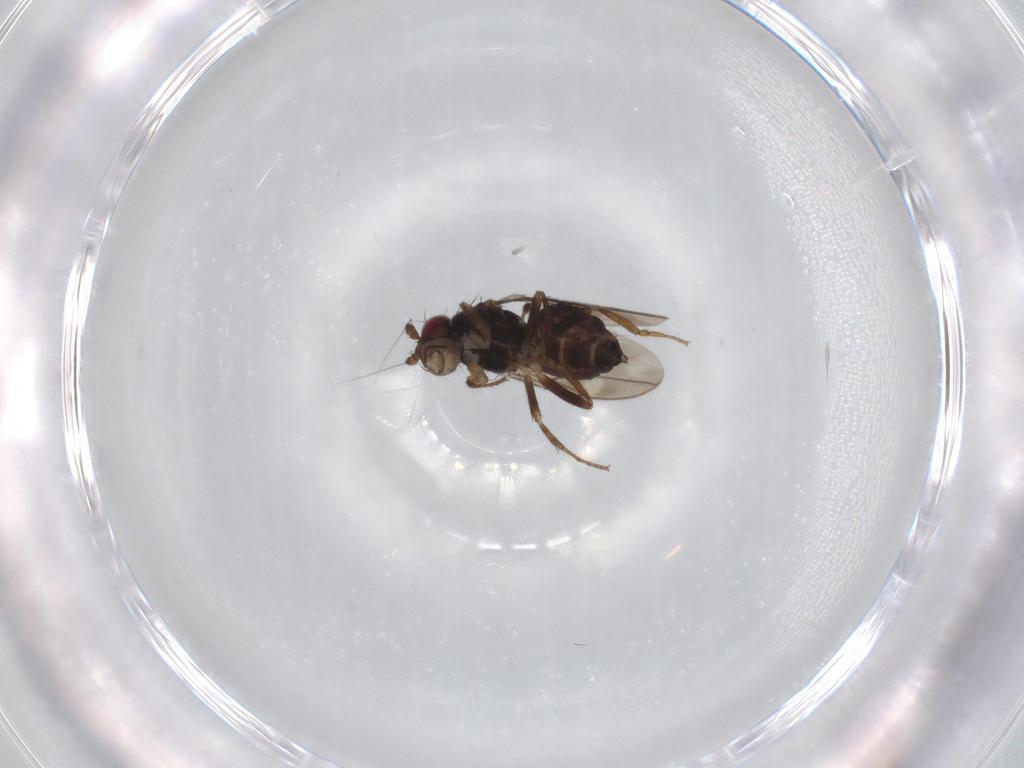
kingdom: Animalia
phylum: Arthropoda
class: Insecta
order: Diptera
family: Sphaeroceridae
